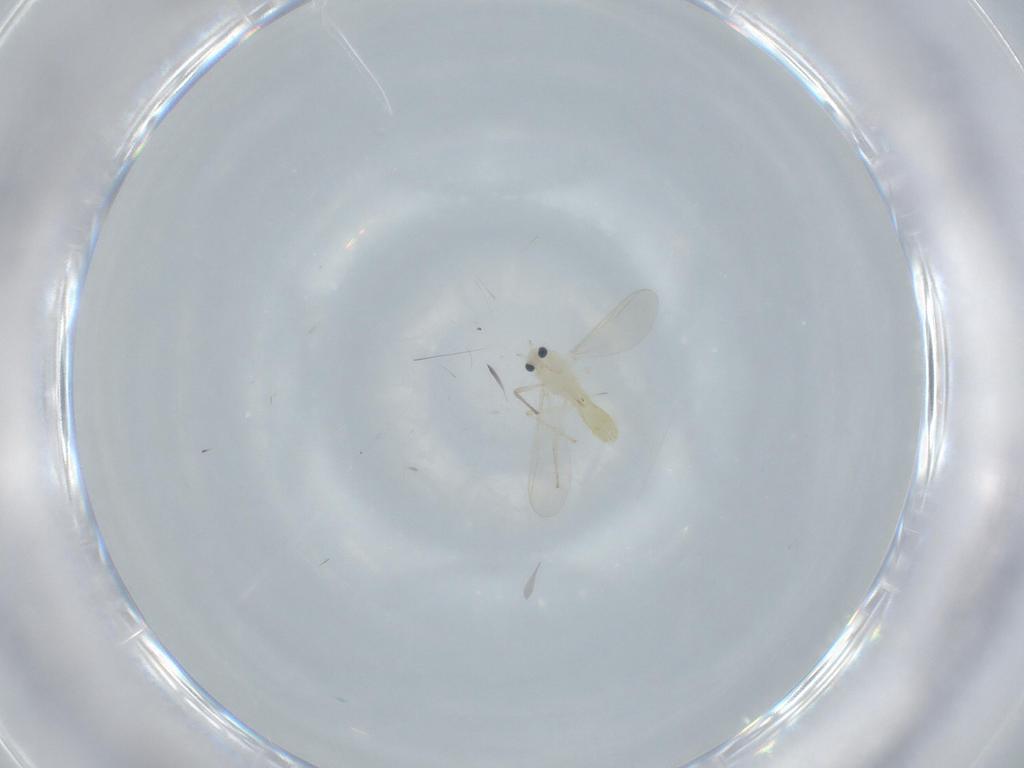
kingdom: Animalia
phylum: Arthropoda
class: Insecta
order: Diptera
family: Chironomidae
